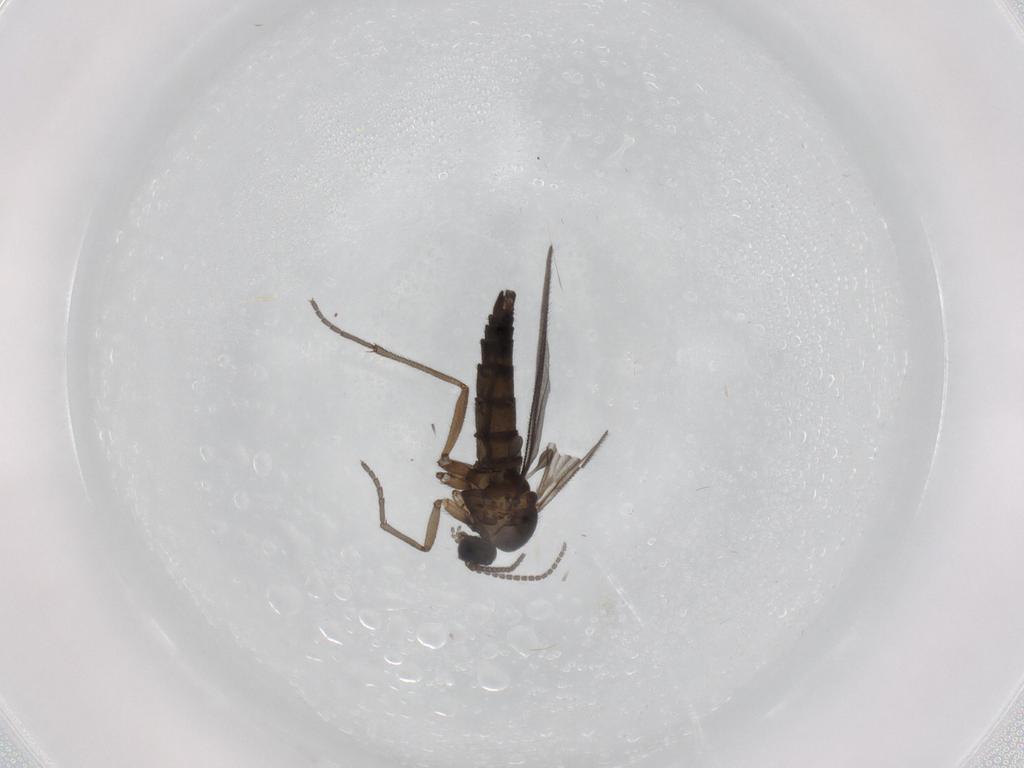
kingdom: Animalia
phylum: Arthropoda
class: Insecta
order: Diptera
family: Sciaridae
